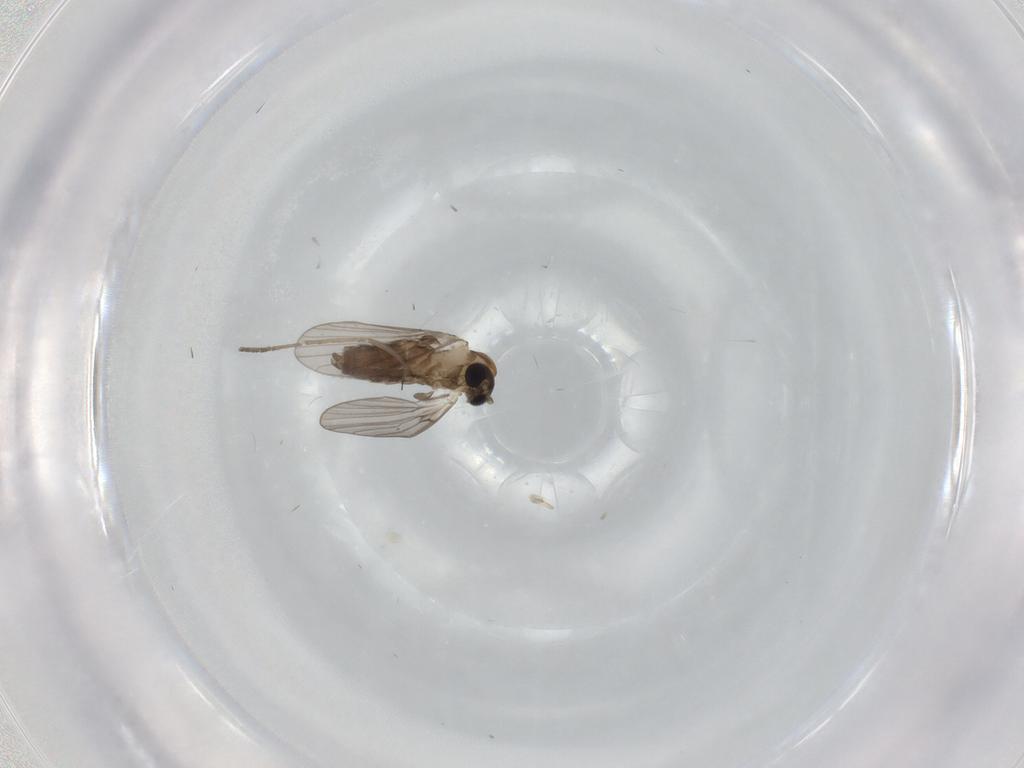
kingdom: Animalia
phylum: Arthropoda
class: Insecta
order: Diptera
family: Psychodidae
